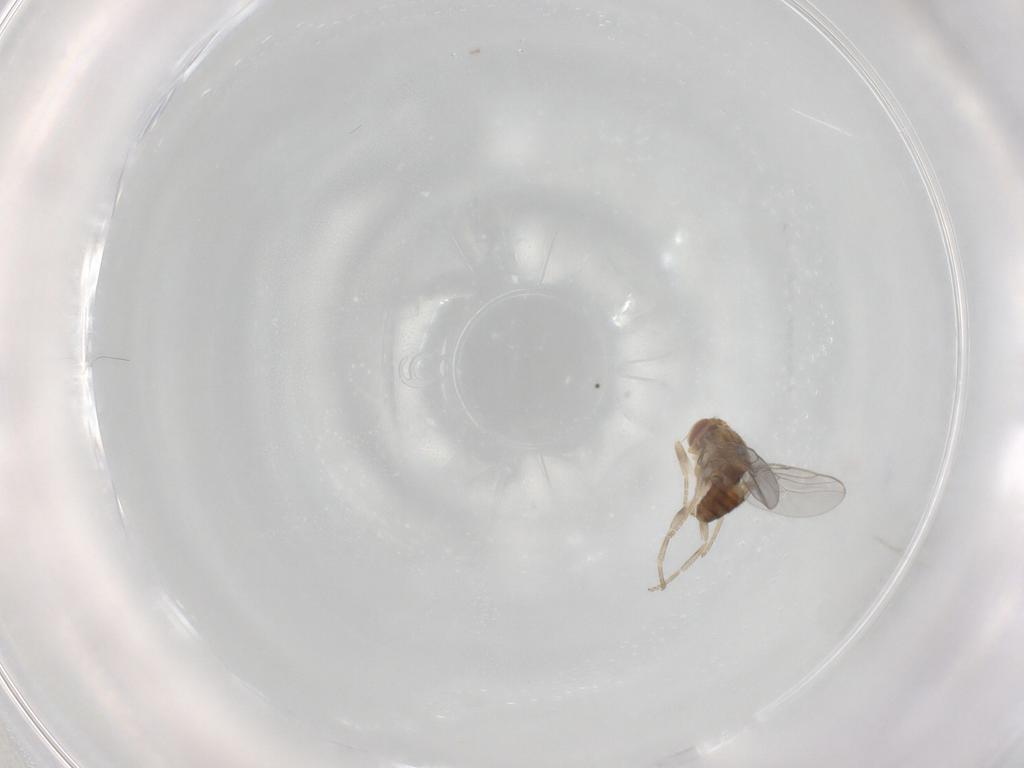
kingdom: Animalia
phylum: Arthropoda
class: Insecta
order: Diptera
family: Chloropidae
